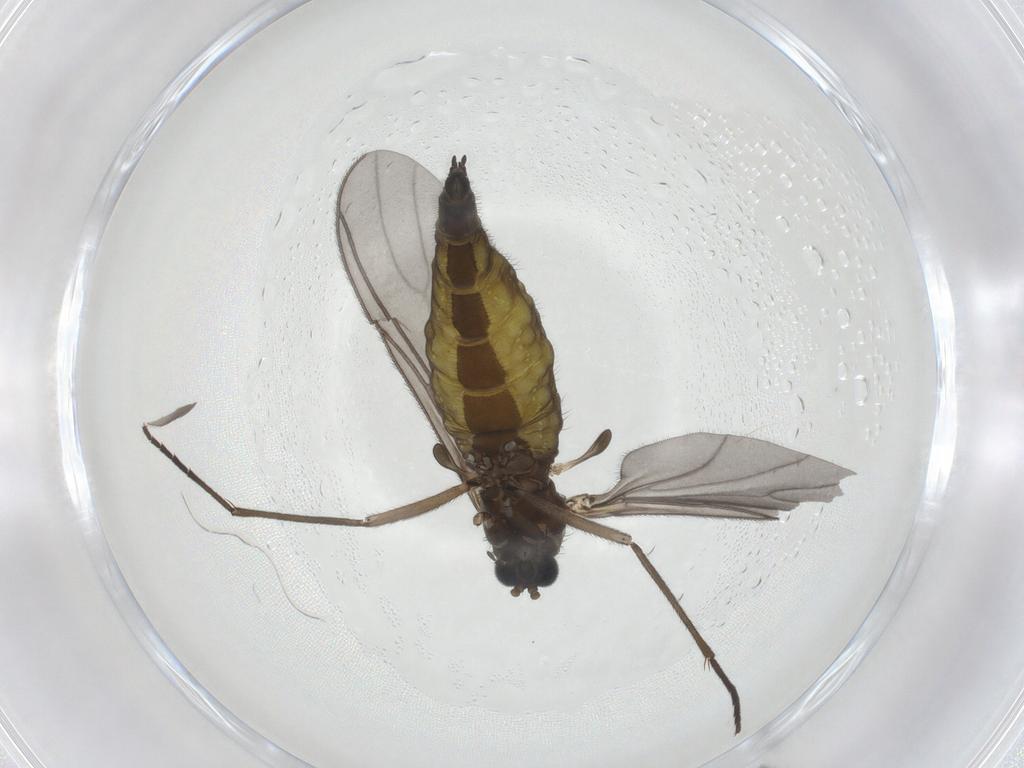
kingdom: Animalia
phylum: Arthropoda
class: Insecta
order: Diptera
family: Sciaridae
